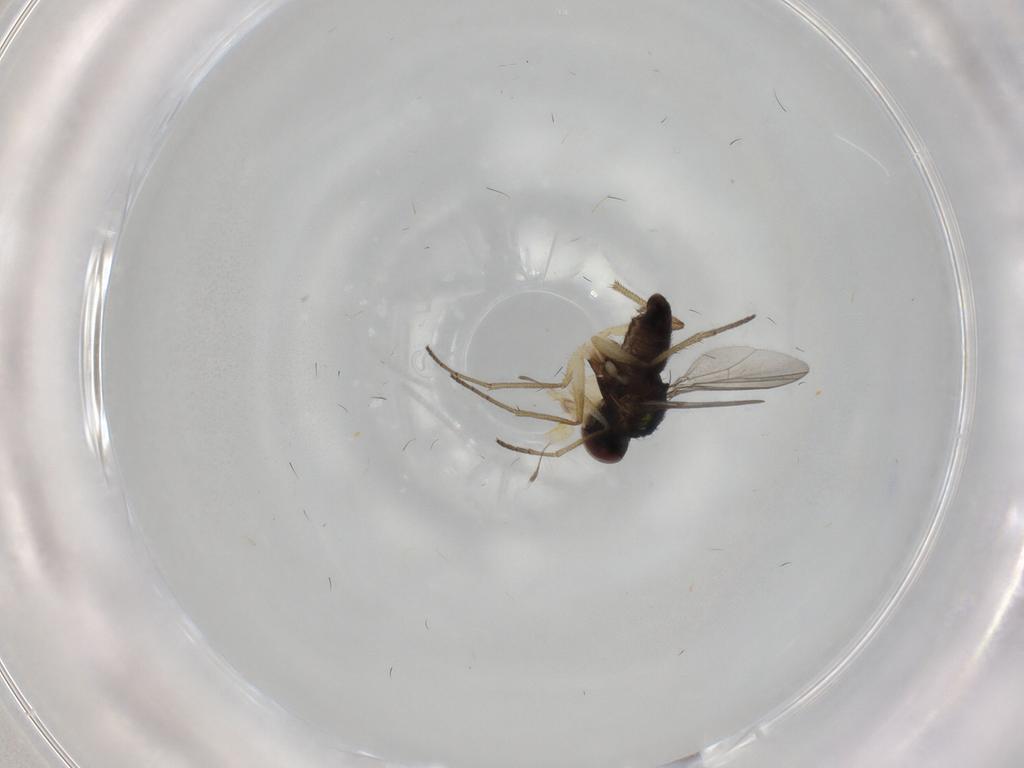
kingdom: Animalia
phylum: Arthropoda
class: Insecta
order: Diptera
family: Dolichopodidae
